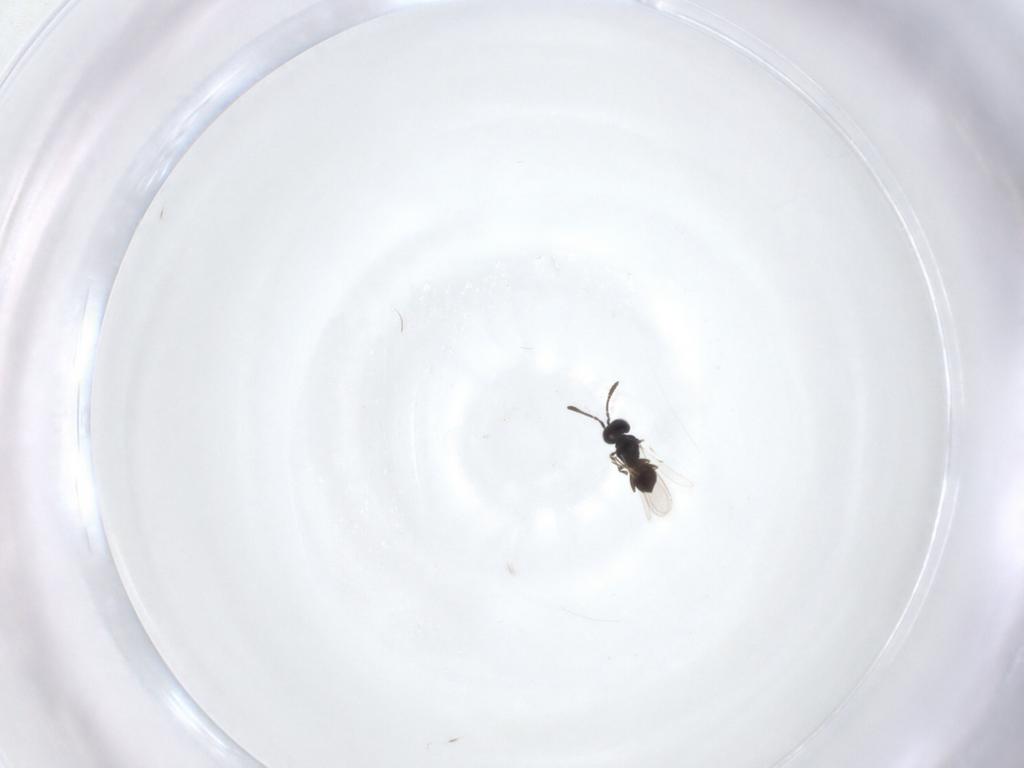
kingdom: Animalia
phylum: Arthropoda
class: Insecta
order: Hymenoptera
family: Scelionidae
